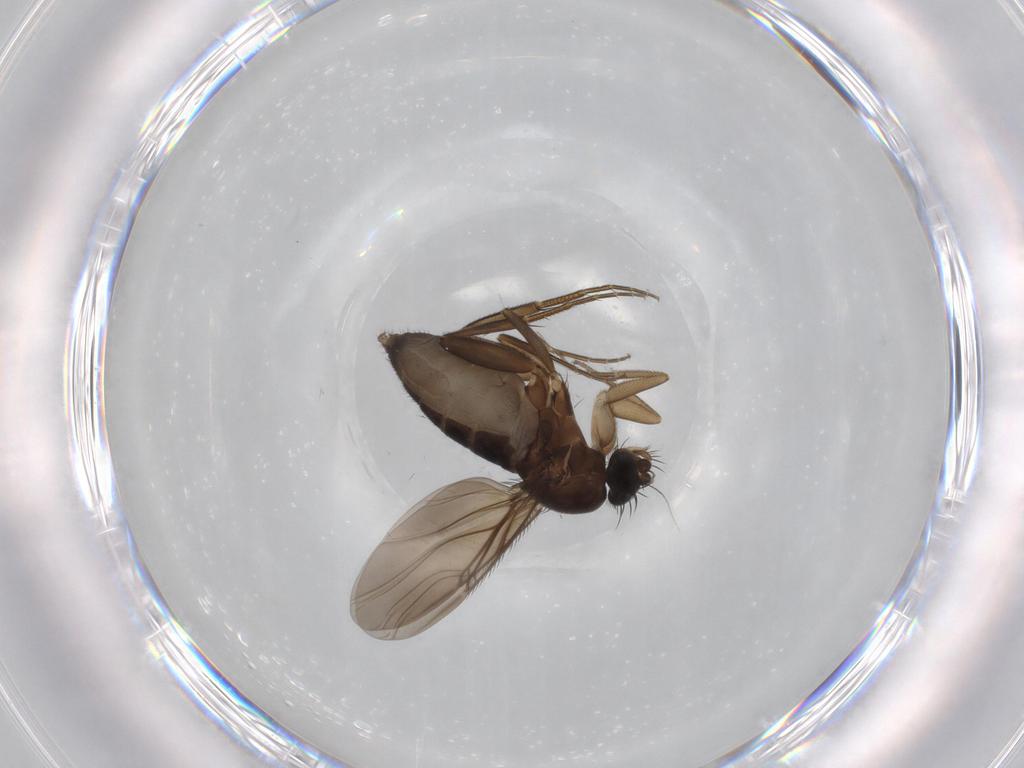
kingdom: Animalia
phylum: Arthropoda
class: Insecta
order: Diptera
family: Phoridae
